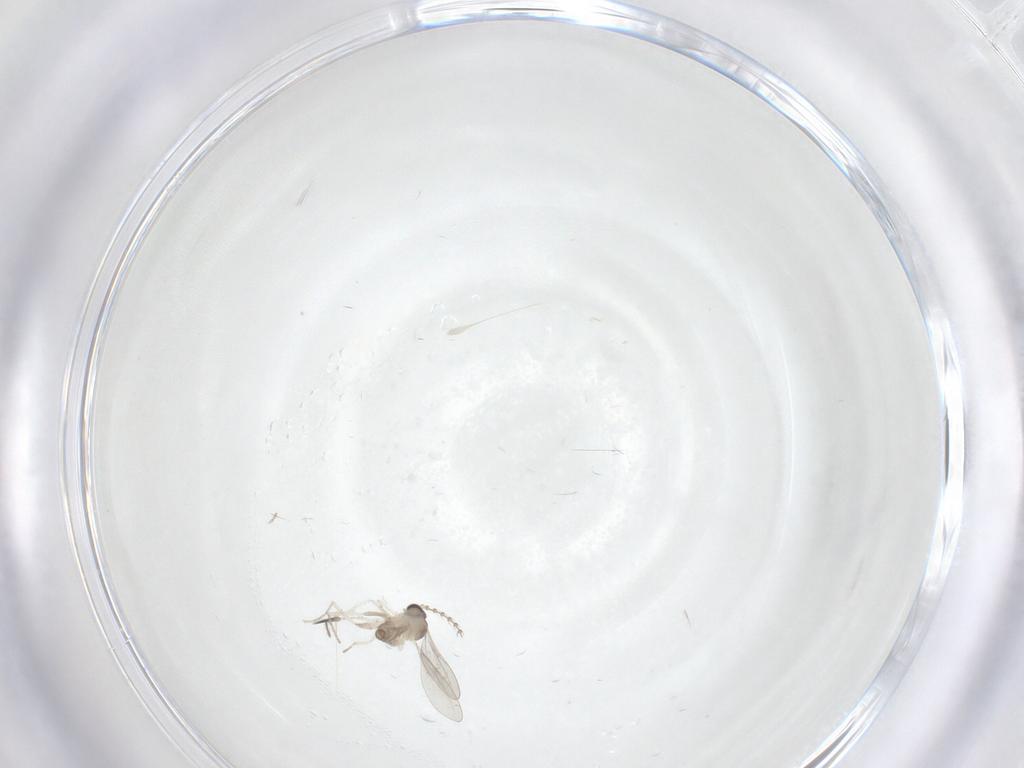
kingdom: Animalia
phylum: Arthropoda
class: Insecta
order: Diptera
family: Cecidomyiidae
